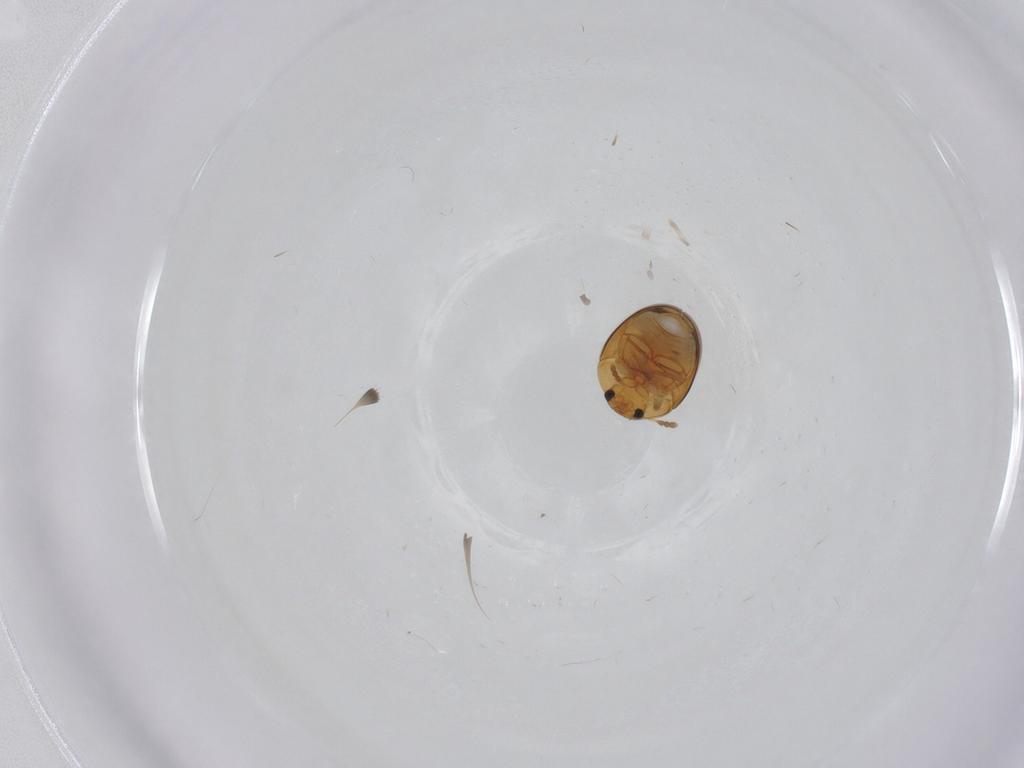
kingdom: Animalia
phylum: Arthropoda
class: Insecta
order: Coleoptera
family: Phalacridae
